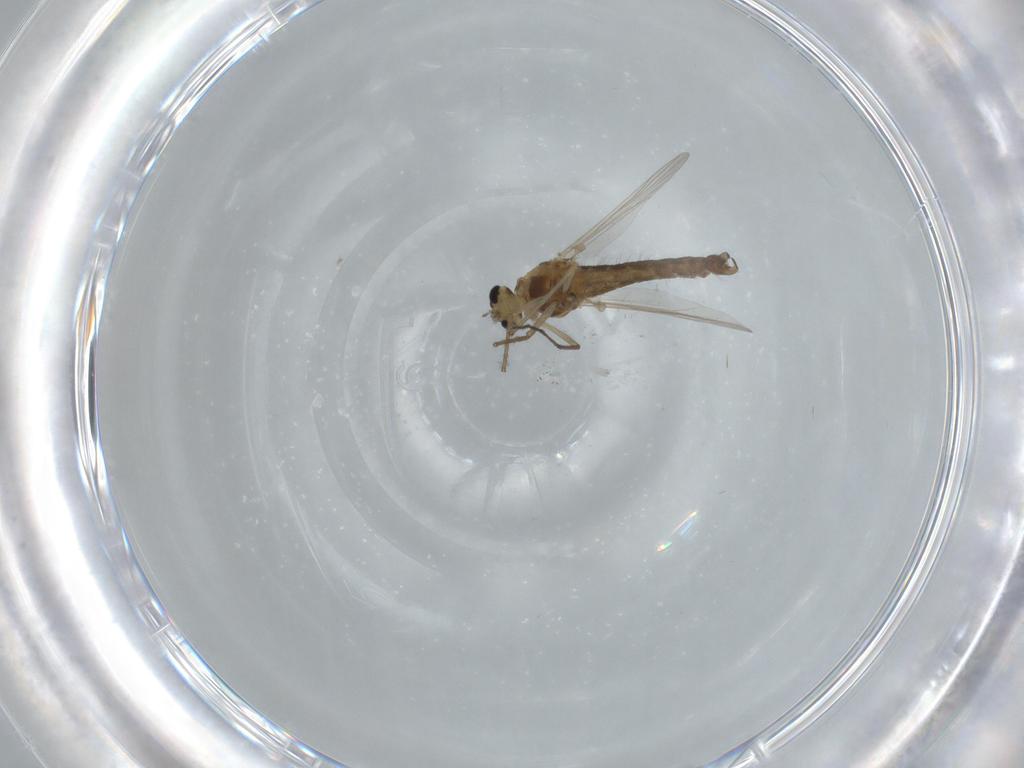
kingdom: Animalia
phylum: Arthropoda
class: Insecta
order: Diptera
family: Chironomidae
